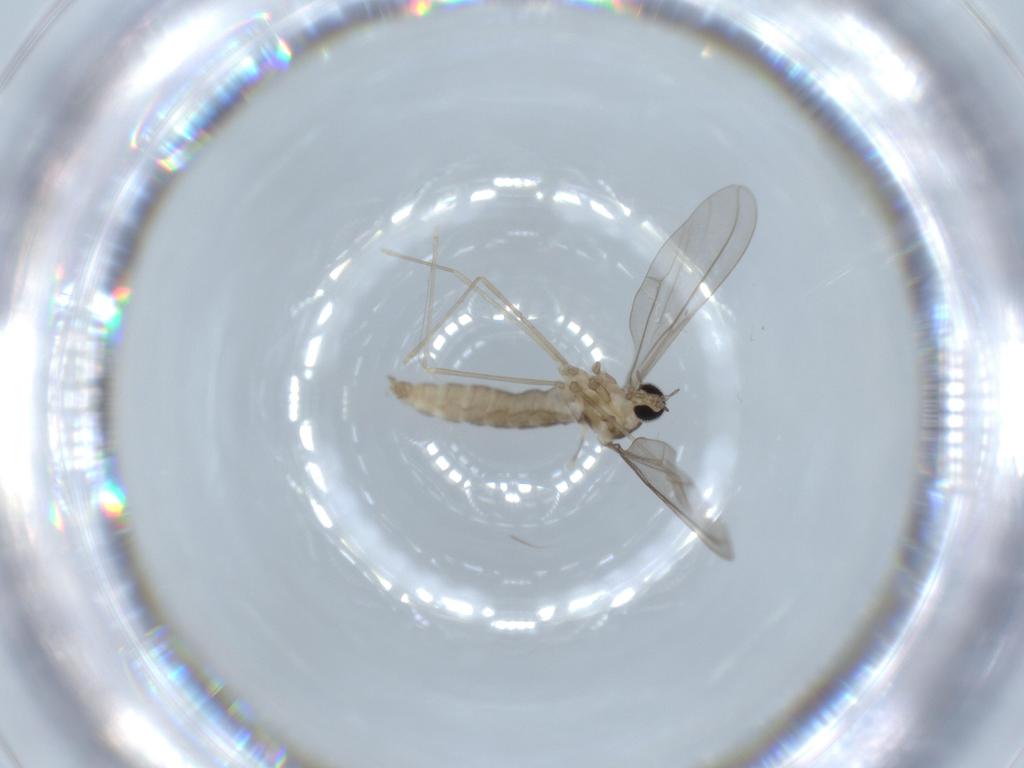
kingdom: Animalia
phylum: Arthropoda
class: Insecta
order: Diptera
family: Cecidomyiidae
